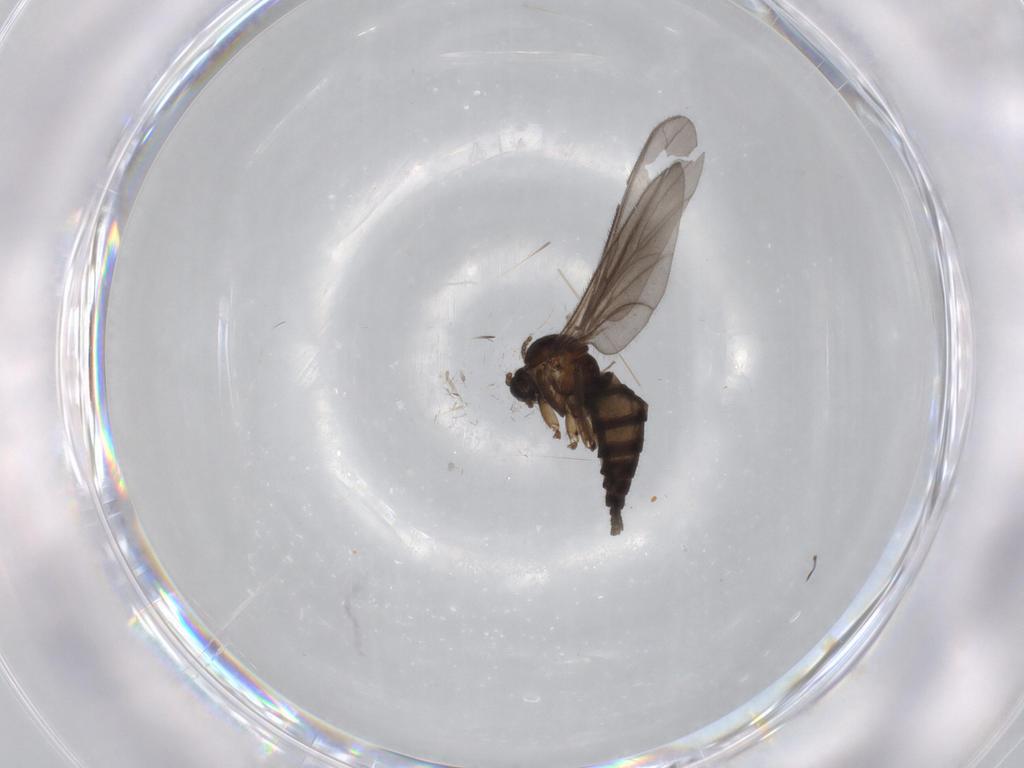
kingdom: Animalia
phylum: Arthropoda
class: Insecta
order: Diptera
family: Sciaridae
